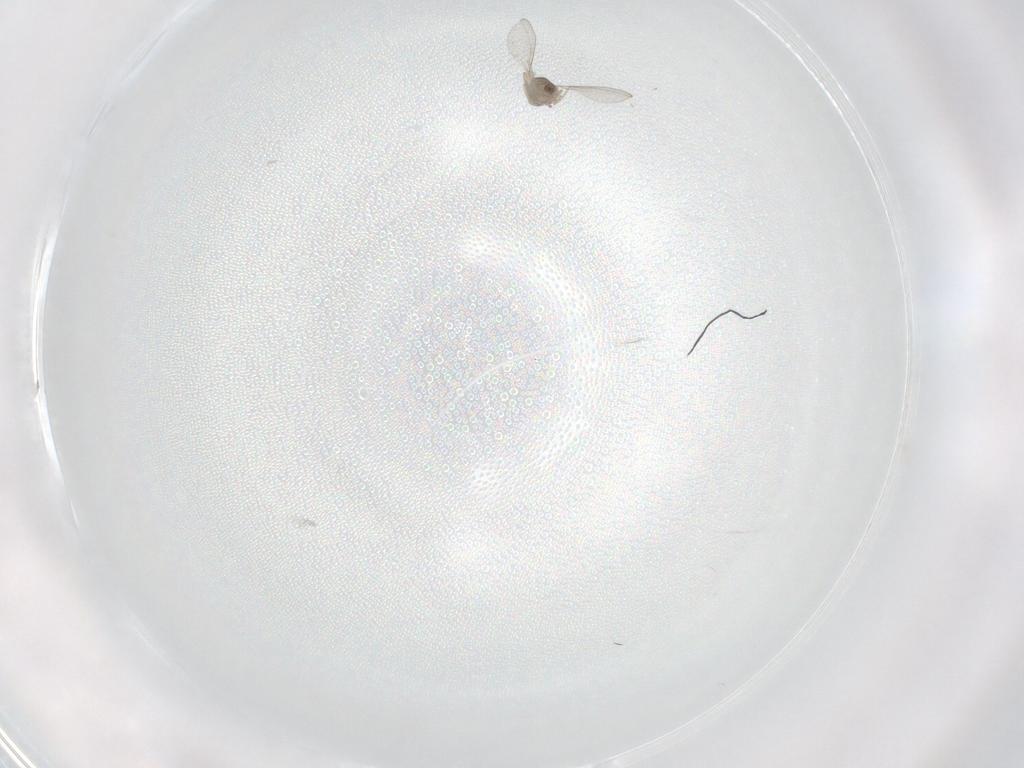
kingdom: Animalia
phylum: Arthropoda
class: Insecta
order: Diptera
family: Cecidomyiidae
